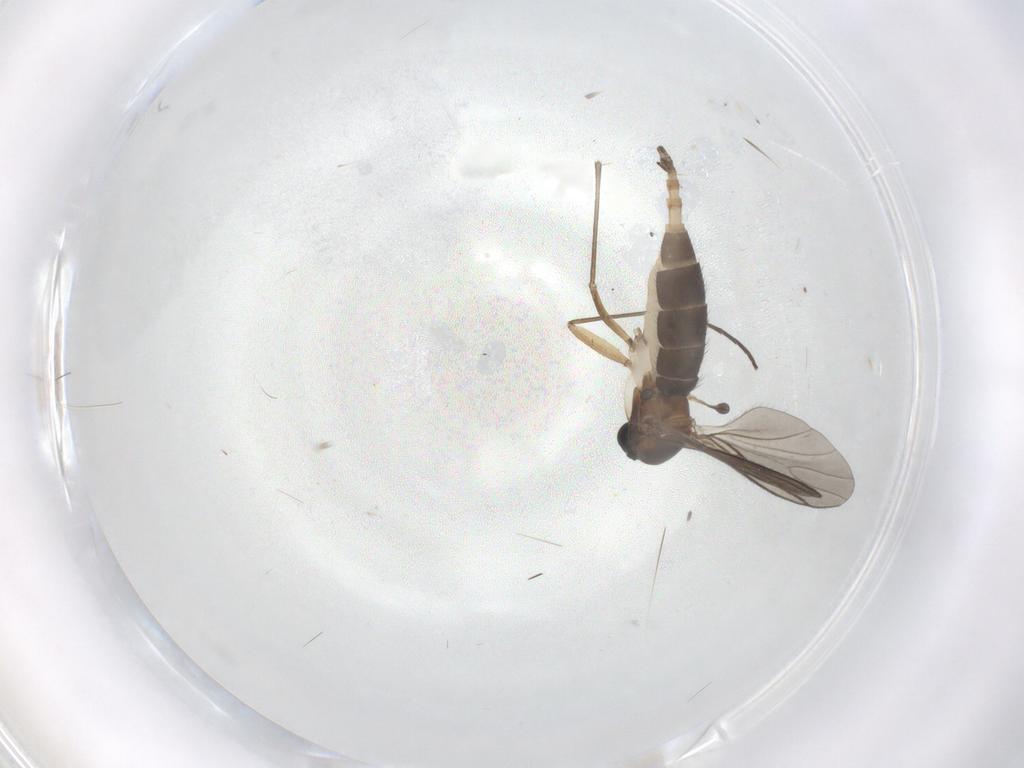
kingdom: Animalia
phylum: Arthropoda
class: Insecta
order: Diptera
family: Sciaridae
